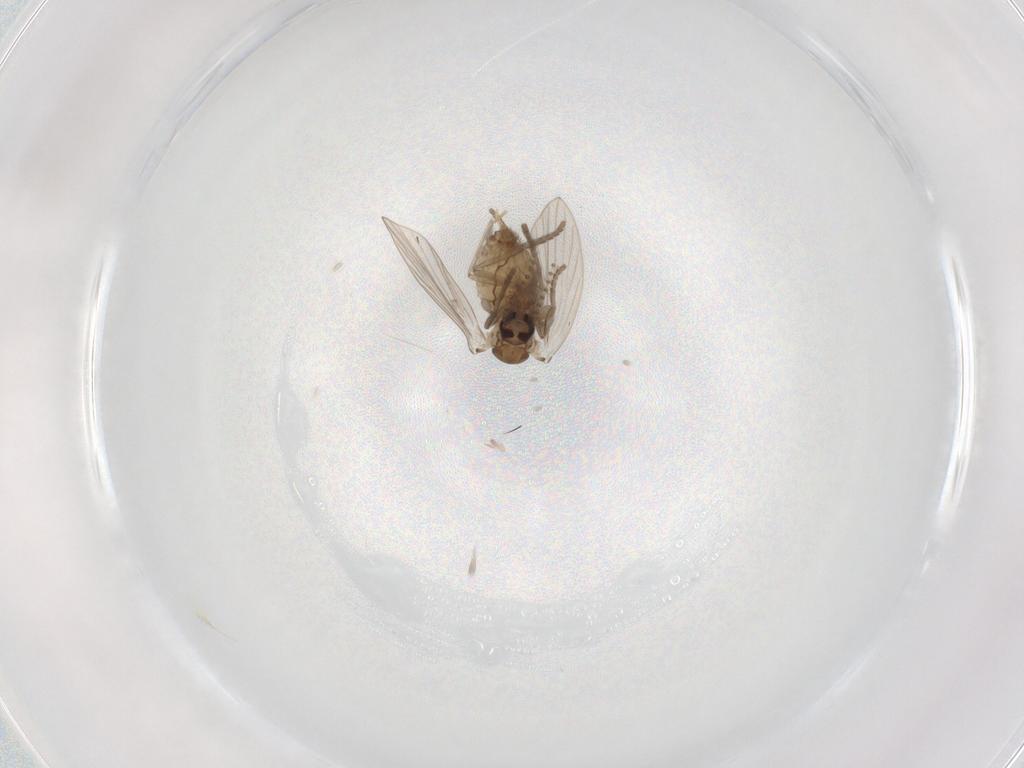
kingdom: Animalia
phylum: Arthropoda
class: Insecta
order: Diptera
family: Psychodidae
